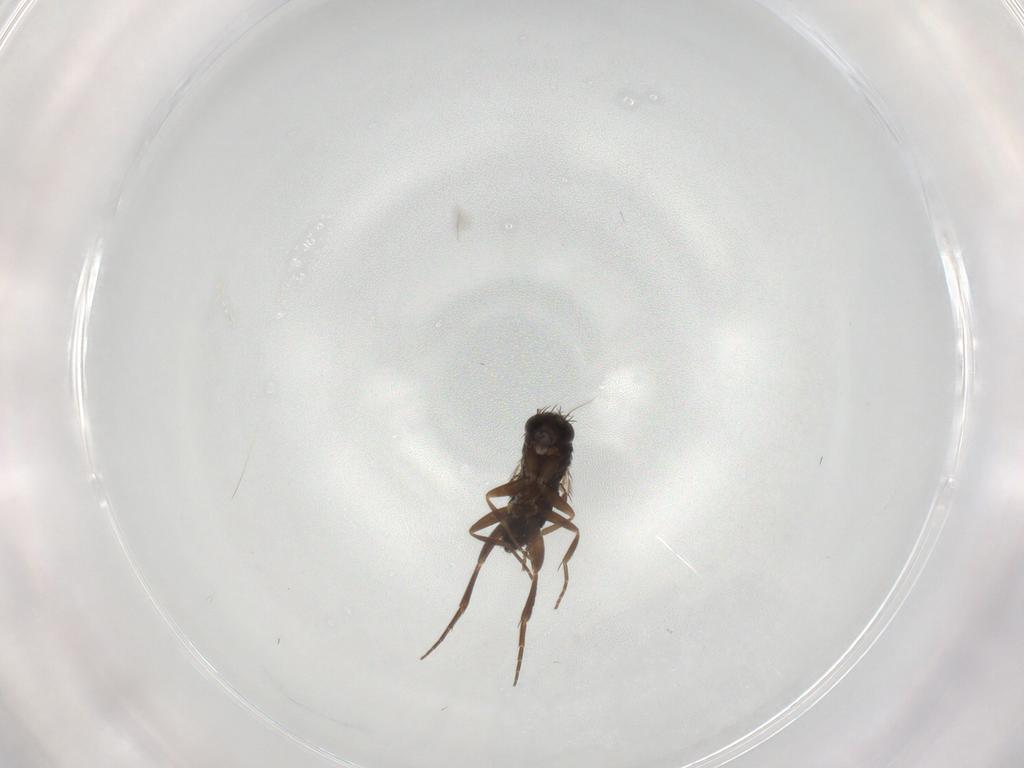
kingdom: Animalia
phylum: Arthropoda
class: Insecta
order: Diptera
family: Phoridae
